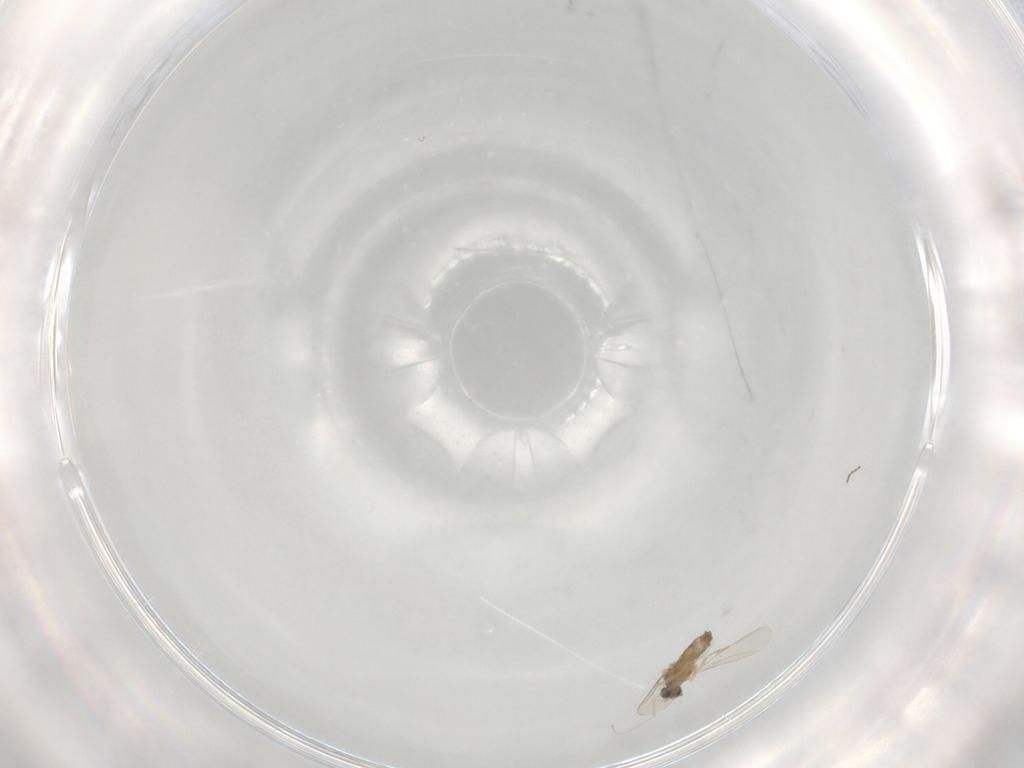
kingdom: Animalia
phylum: Arthropoda
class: Insecta
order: Diptera
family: Cecidomyiidae
